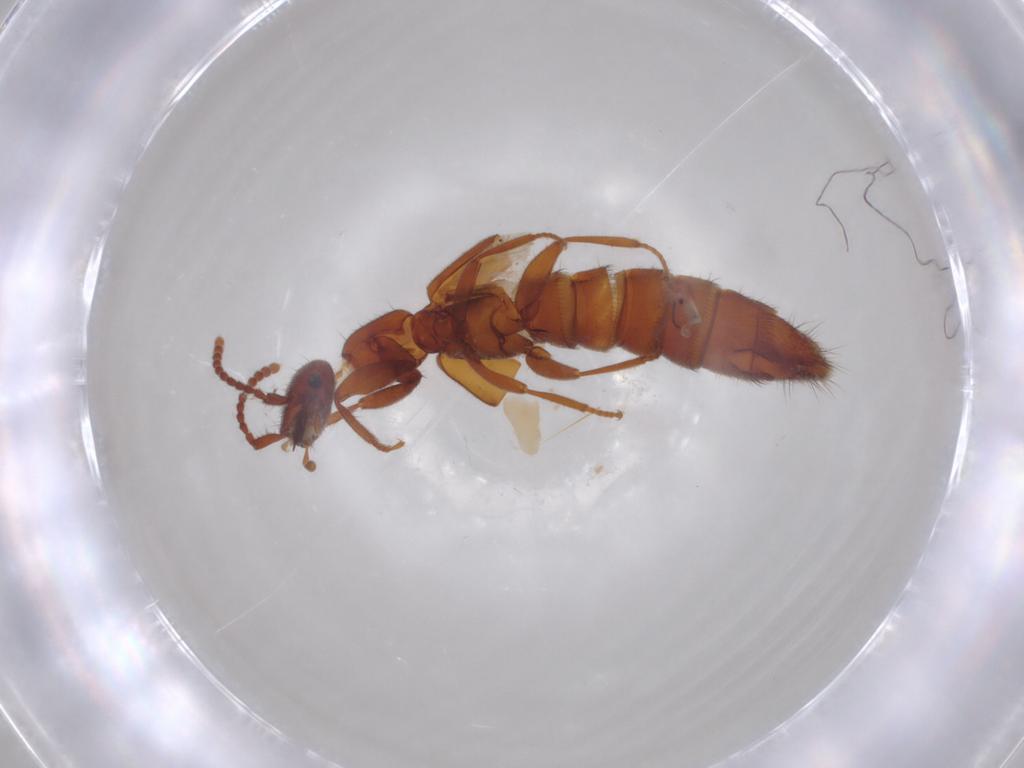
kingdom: Animalia
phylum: Arthropoda
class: Insecta
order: Coleoptera
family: Staphylinidae
